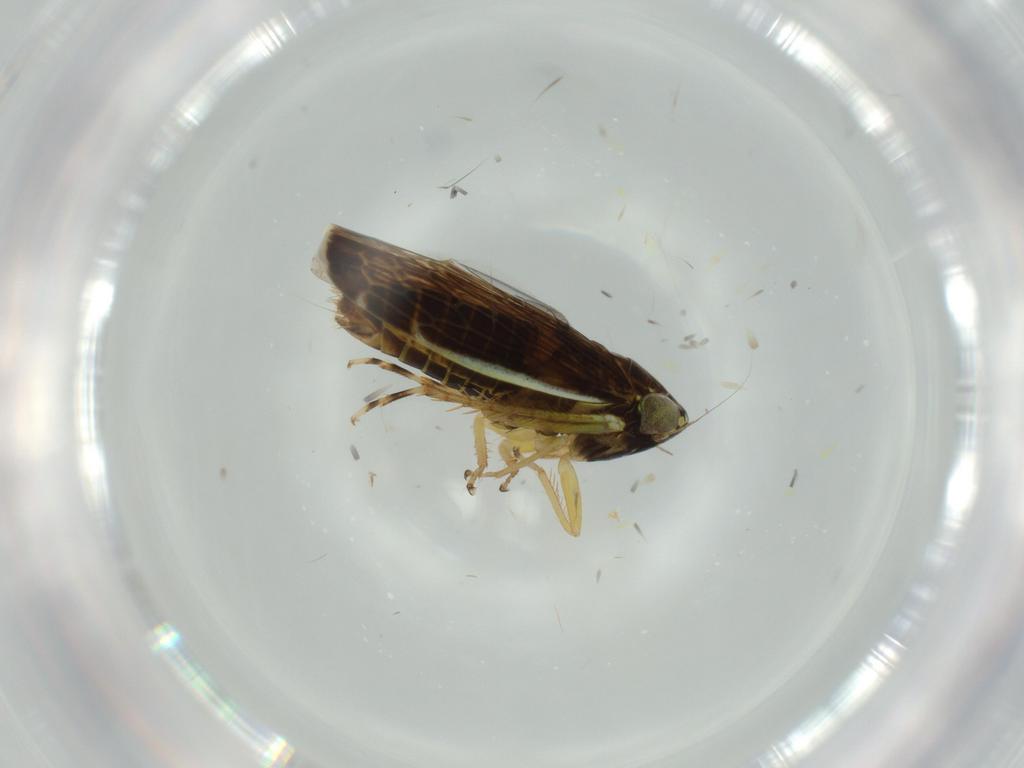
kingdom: Animalia
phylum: Arthropoda
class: Insecta
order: Hemiptera
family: Cicadellidae
